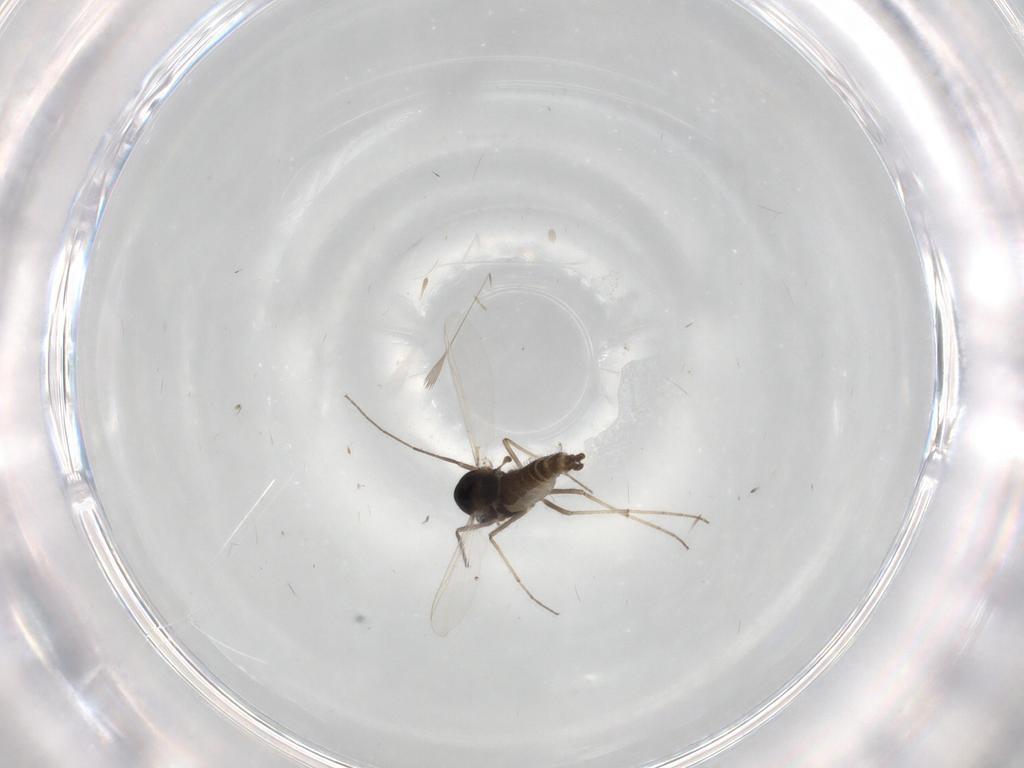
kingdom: Animalia
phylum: Arthropoda
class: Insecta
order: Diptera
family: Chironomidae
